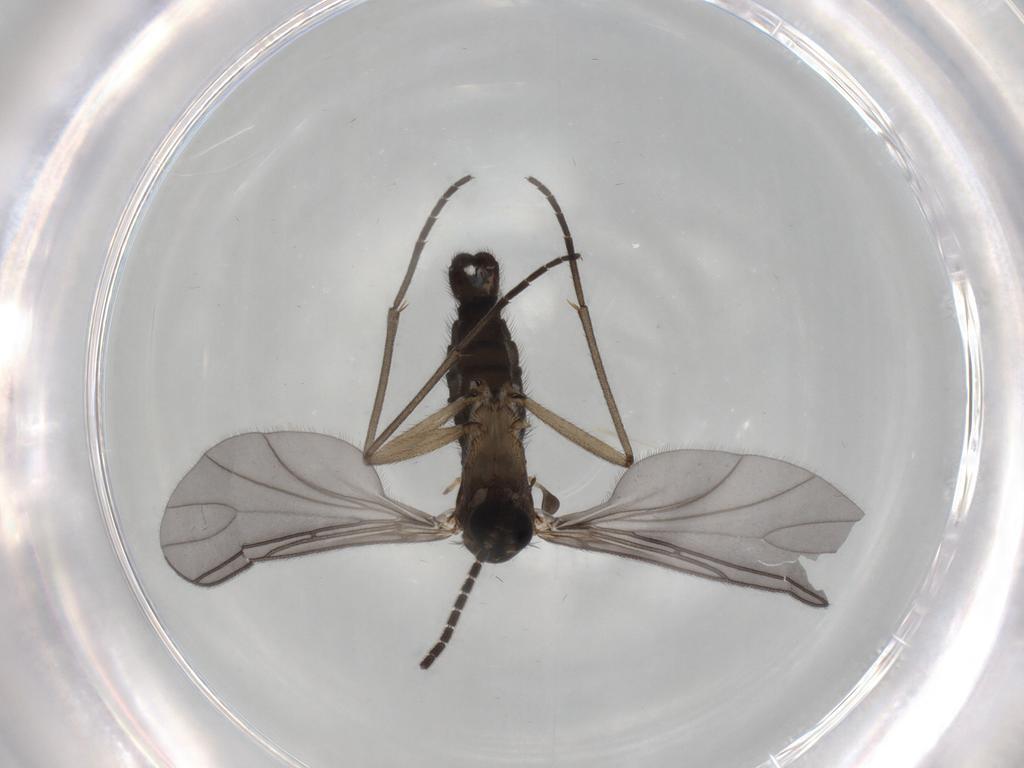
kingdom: Animalia
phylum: Arthropoda
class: Insecta
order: Diptera
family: Sciaridae
